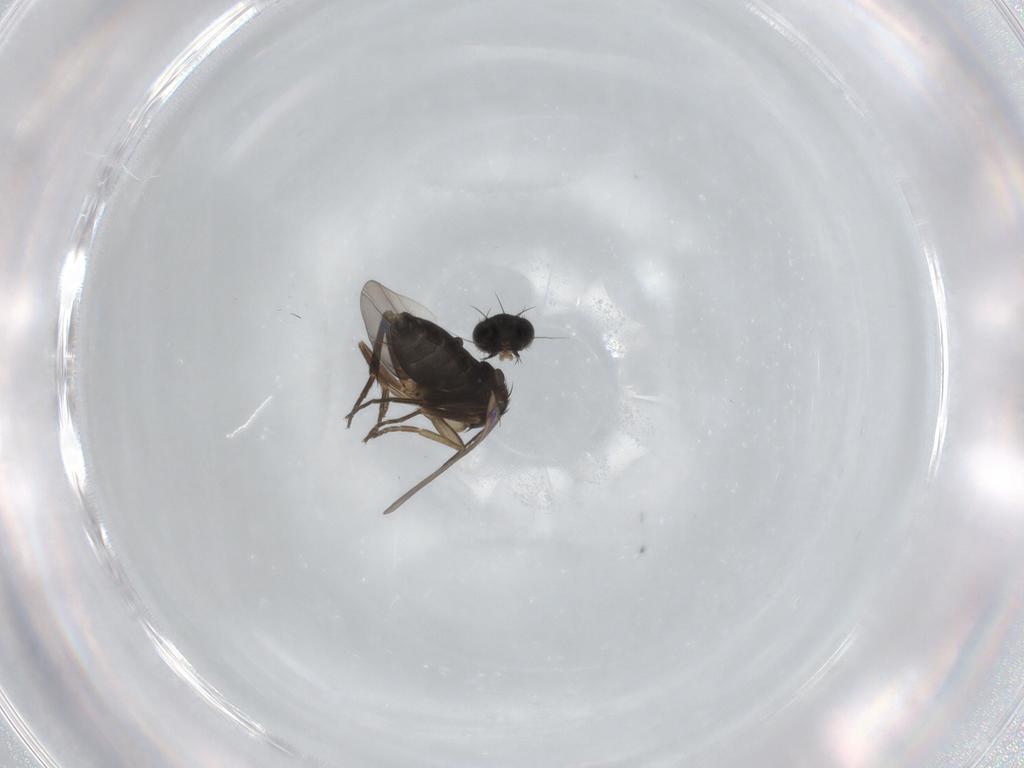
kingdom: Animalia
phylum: Arthropoda
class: Insecta
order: Diptera
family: Phoridae
